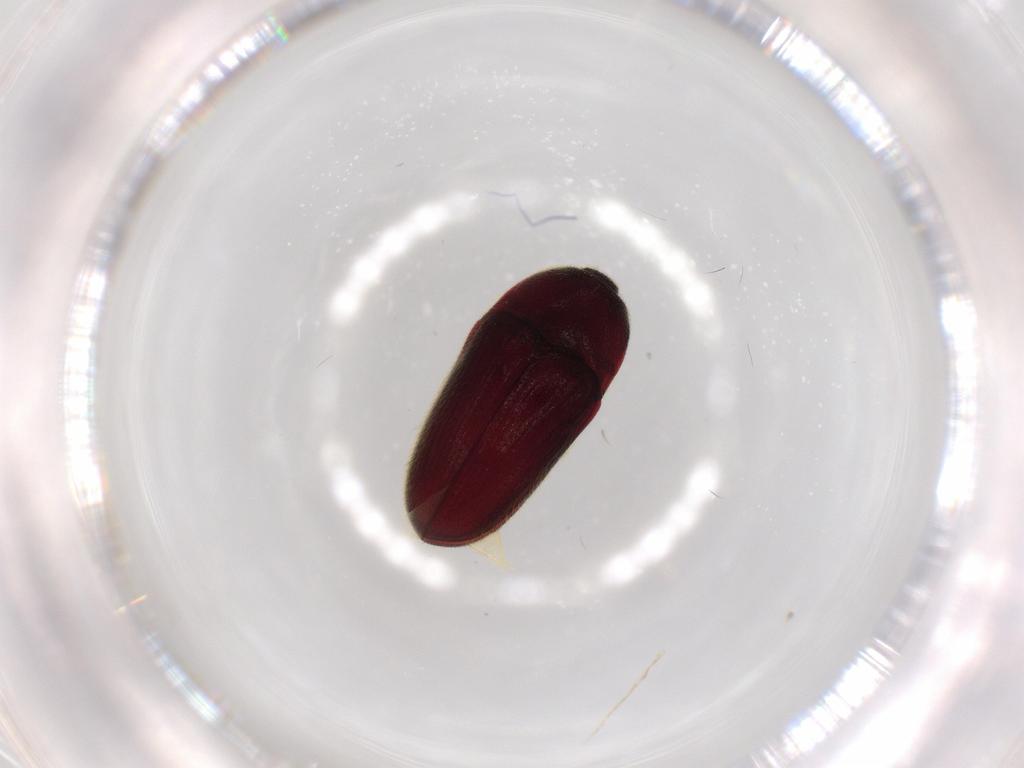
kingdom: Animalia
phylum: Arthropoda
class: Insecta
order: Coleoptera
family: Throscidae
